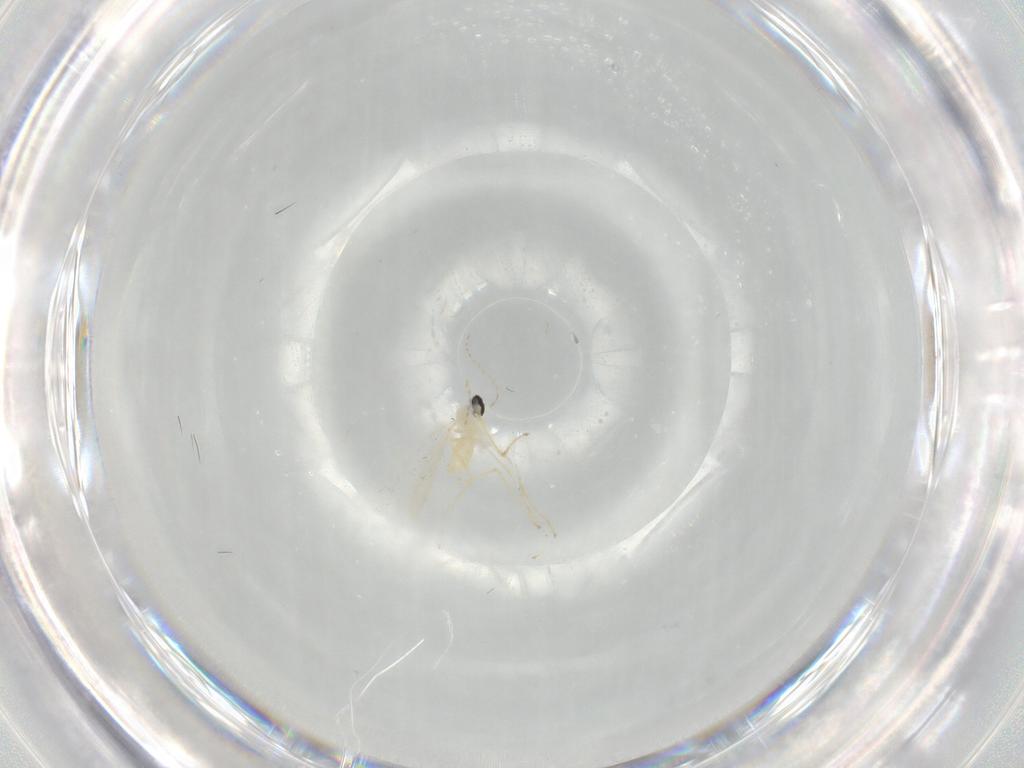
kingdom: Animalia
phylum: Arthropoda
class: Insecta
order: Diptera
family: Cecidomyiidae
